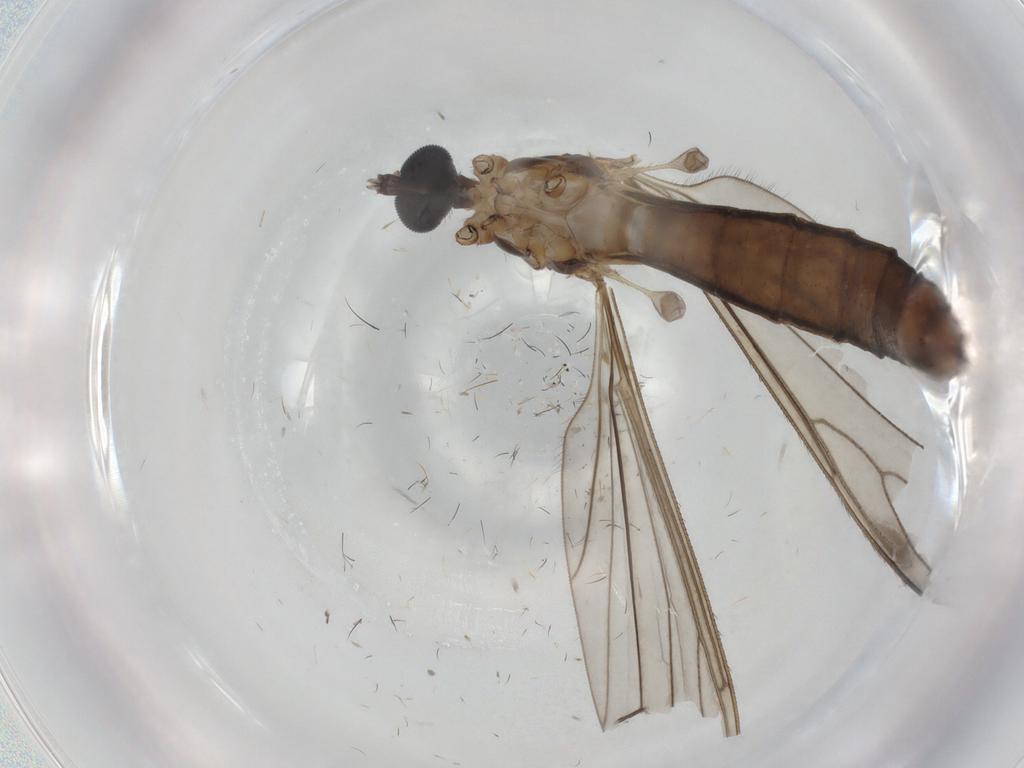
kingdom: Animalia
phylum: Arthropoda
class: Insecta
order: Diptera
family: Limoniidae
